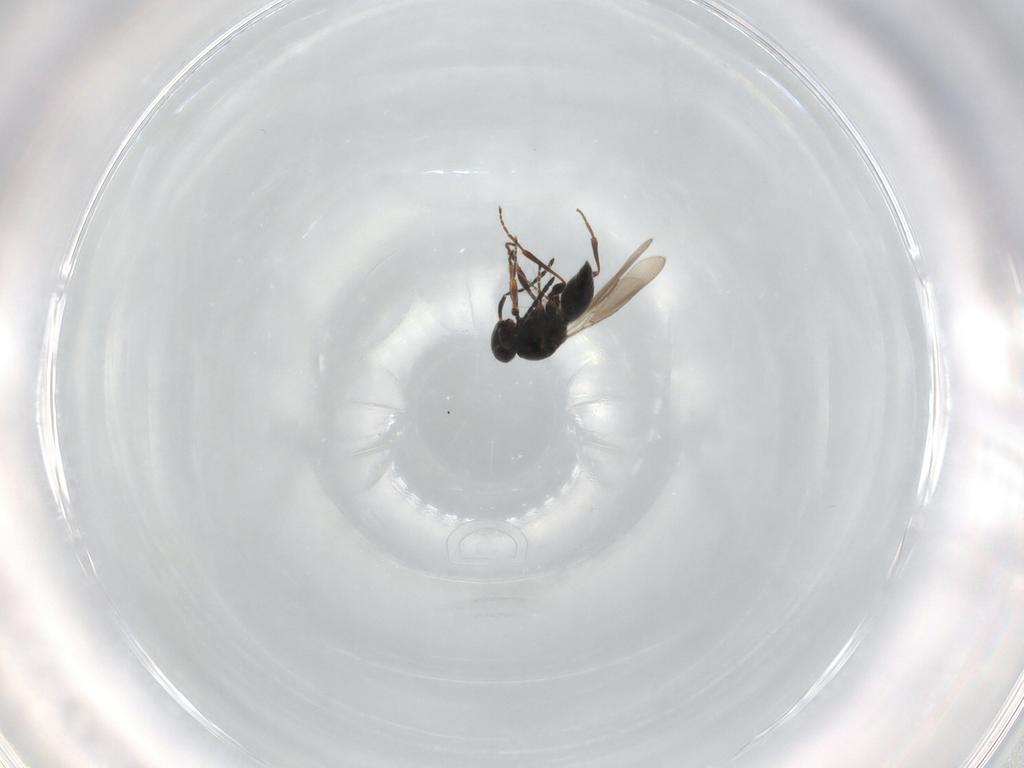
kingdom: Animalia
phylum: Arthropoda
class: Insecta
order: Hymenoptera
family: Platygastridae
